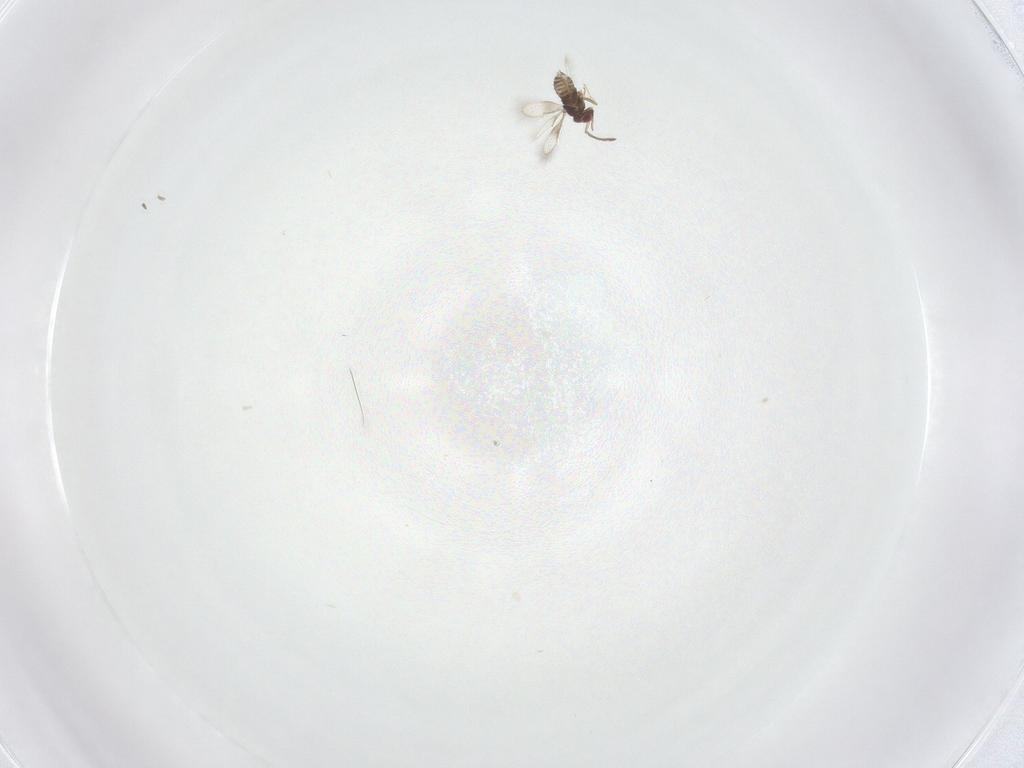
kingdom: Animalia
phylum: Arthropoda
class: Insecta
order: Hymenoptera
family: Azotidae
